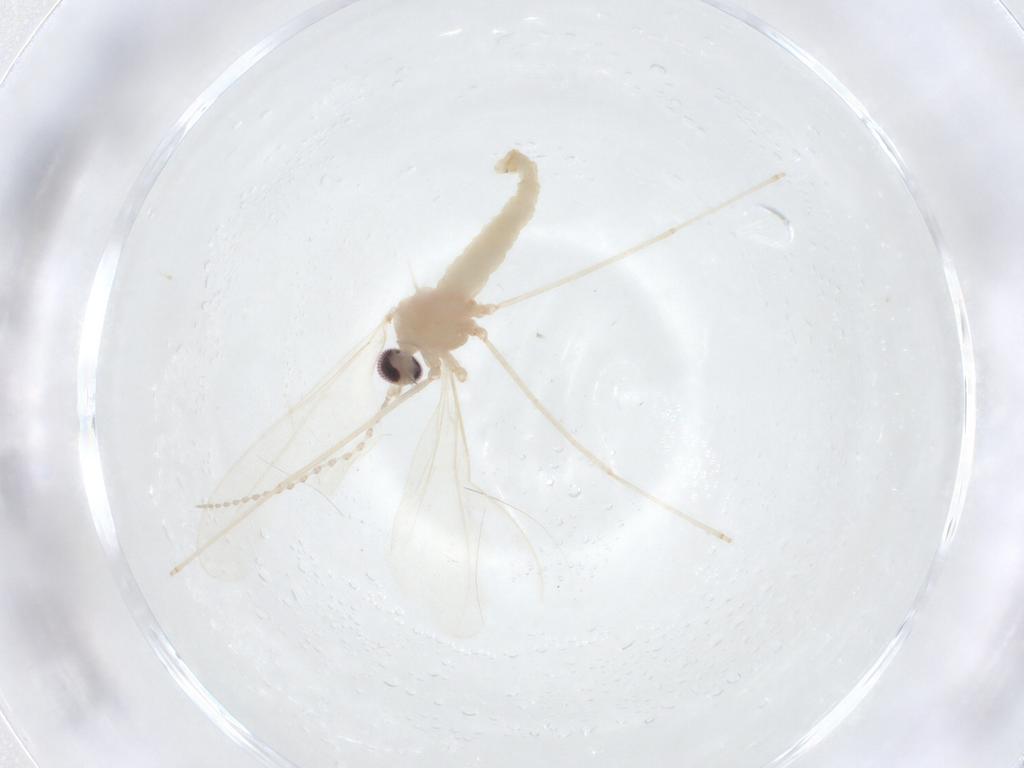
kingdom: Animalia
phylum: Arthropoda
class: Insecta
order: Diptera
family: Cecidomyiidae
